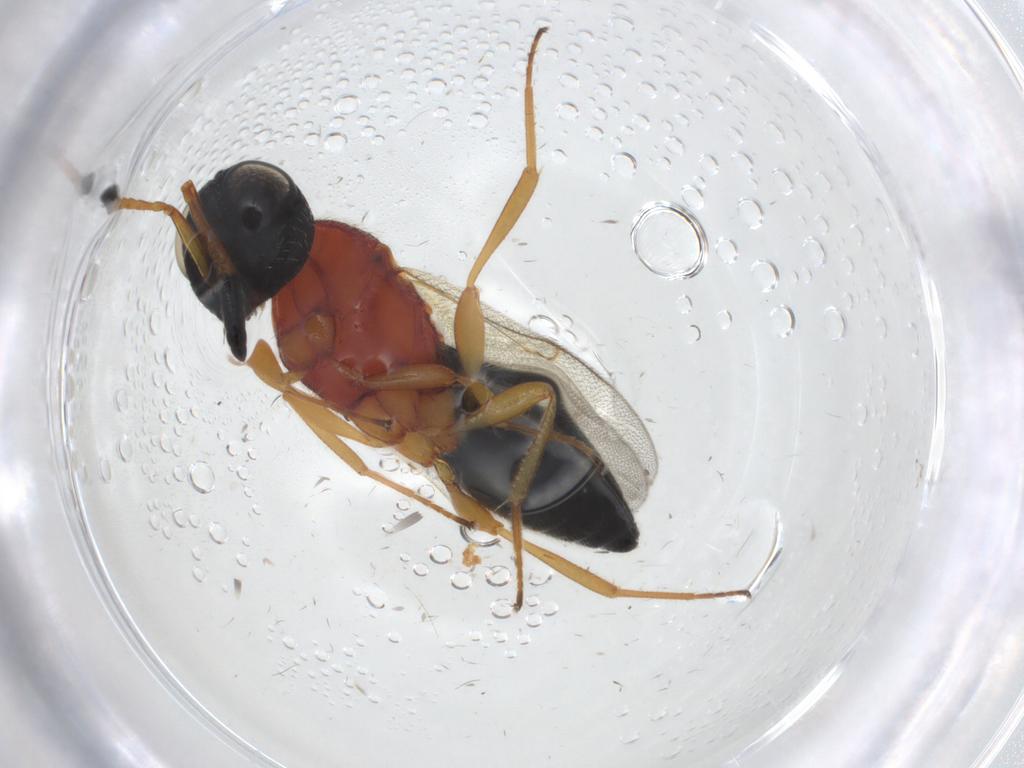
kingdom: Animalia
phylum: Arthropoda
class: Insecta
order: Hymenoptera
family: Scelionidae
